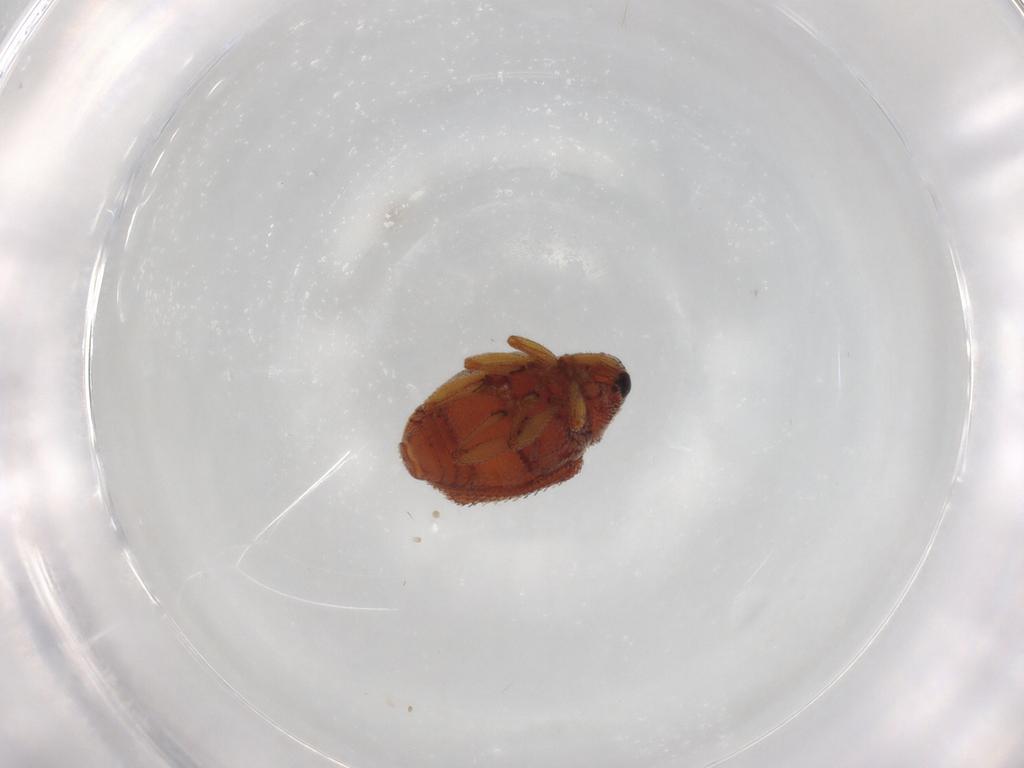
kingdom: Animalia
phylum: Arthropoda
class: Insecta
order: Coleoptera
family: Curculionidae
